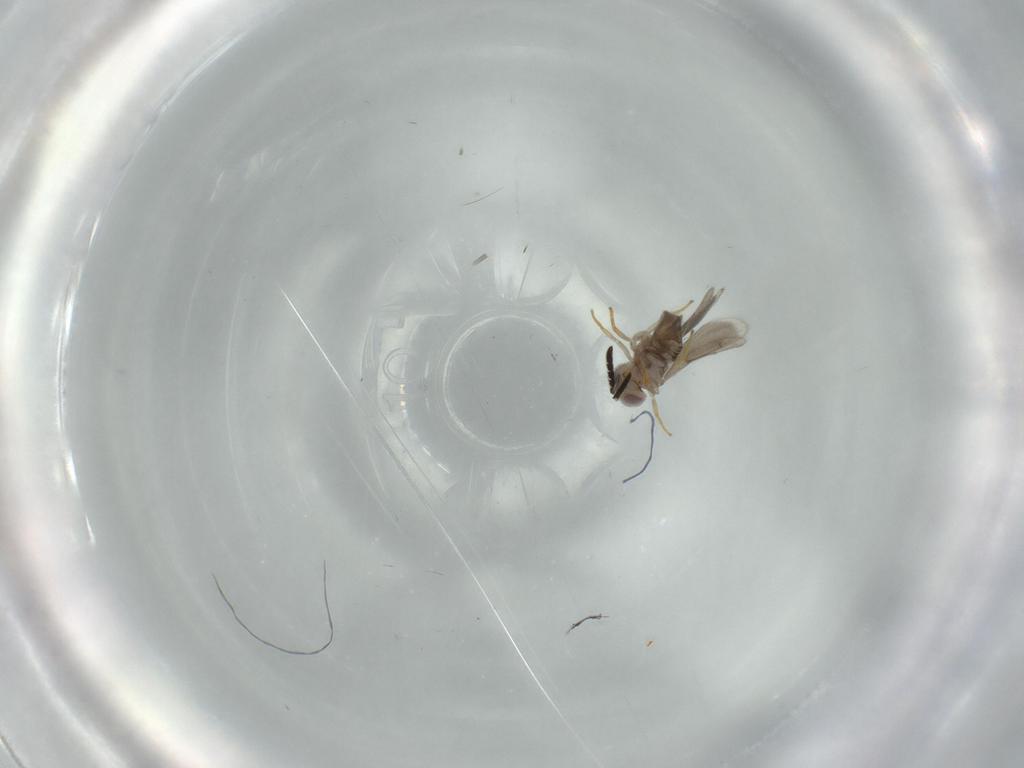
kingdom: Animalia
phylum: Arthropoda
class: Insecta
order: Hymenoptera
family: Aphelinidae
